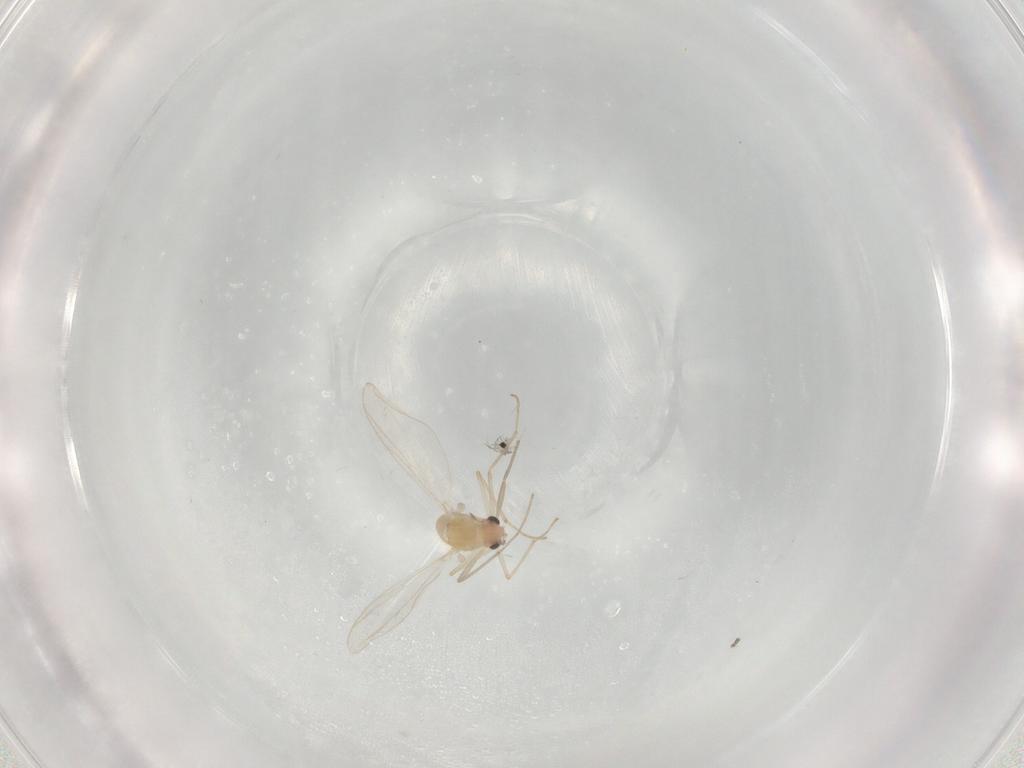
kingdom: Animalia
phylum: Arthropoda
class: Insecta
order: Diptera
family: Chironomidae
